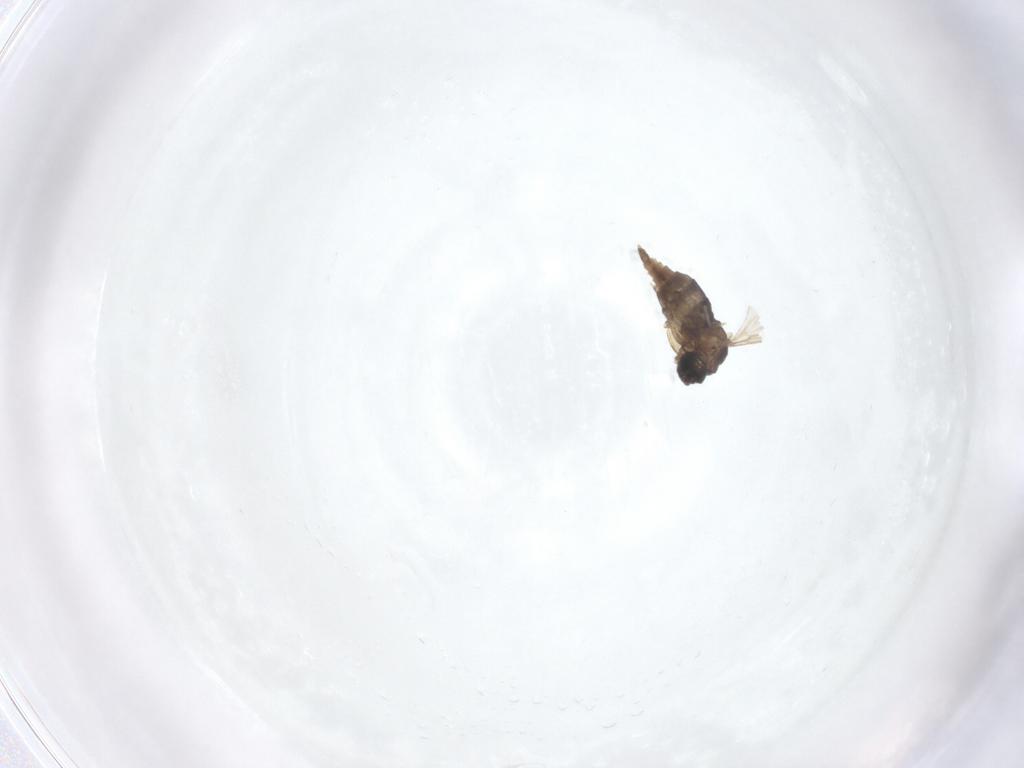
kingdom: Animalia
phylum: Arthropoda
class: Insecta
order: Diptera
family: Sciaridae
